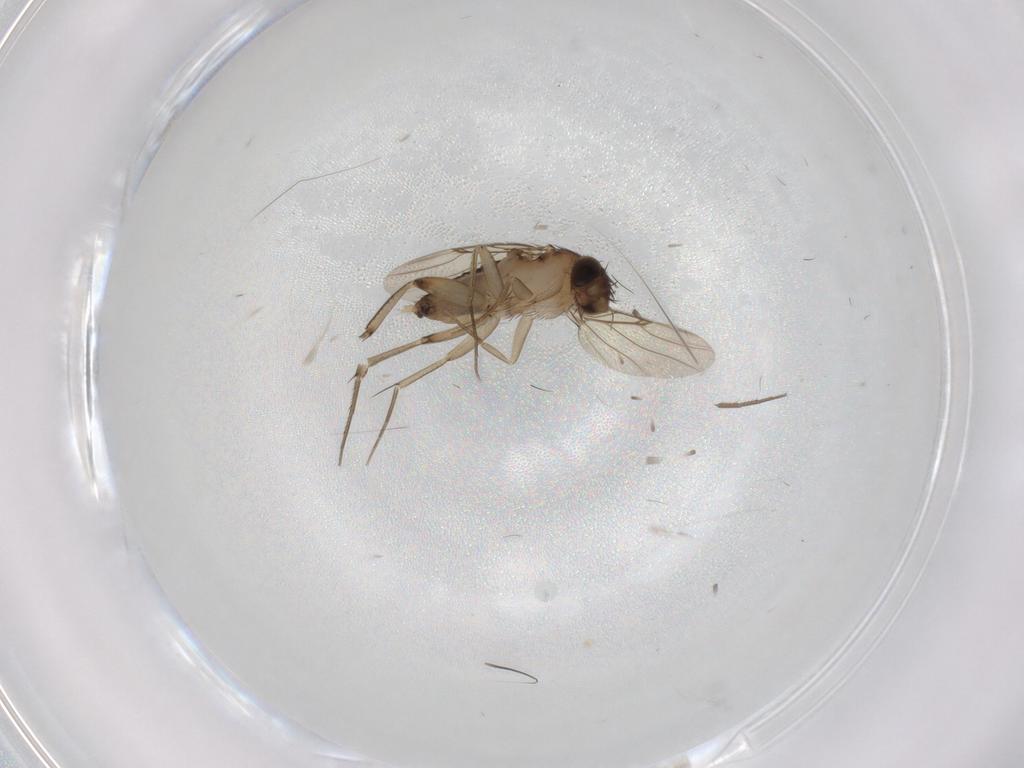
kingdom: Animalia
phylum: Arthropoda
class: Insecta
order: Diptera
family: Phoridae
